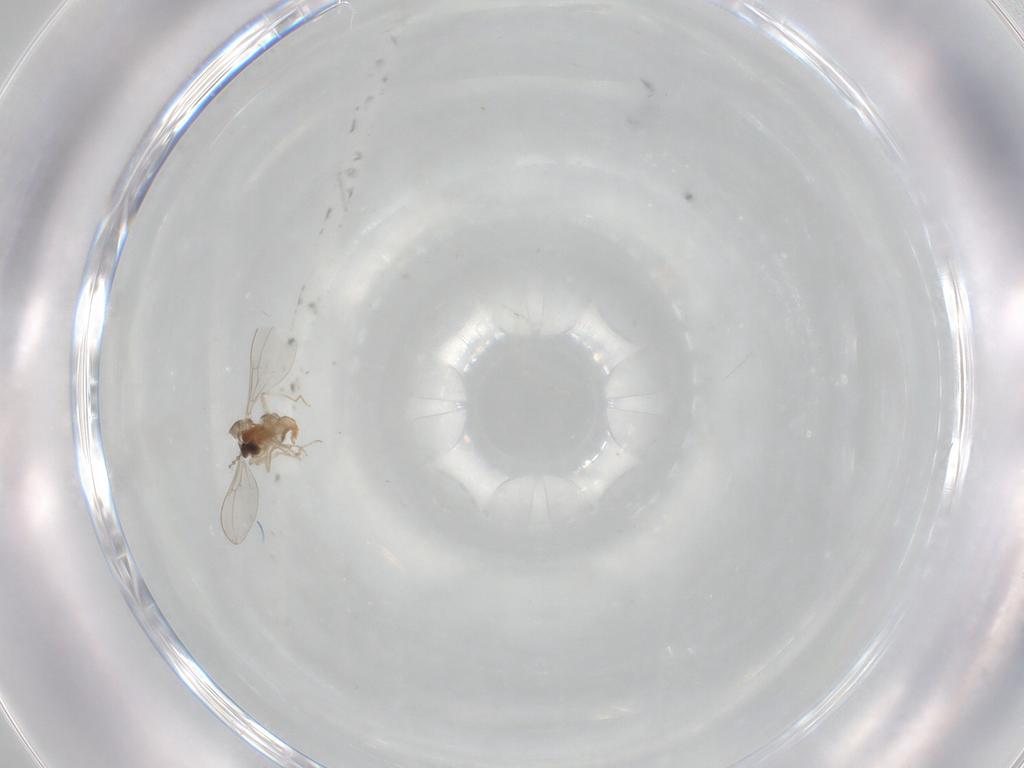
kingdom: Animalia
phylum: Arthropoda
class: Insecta
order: Diptera
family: Cecidomyiidae
